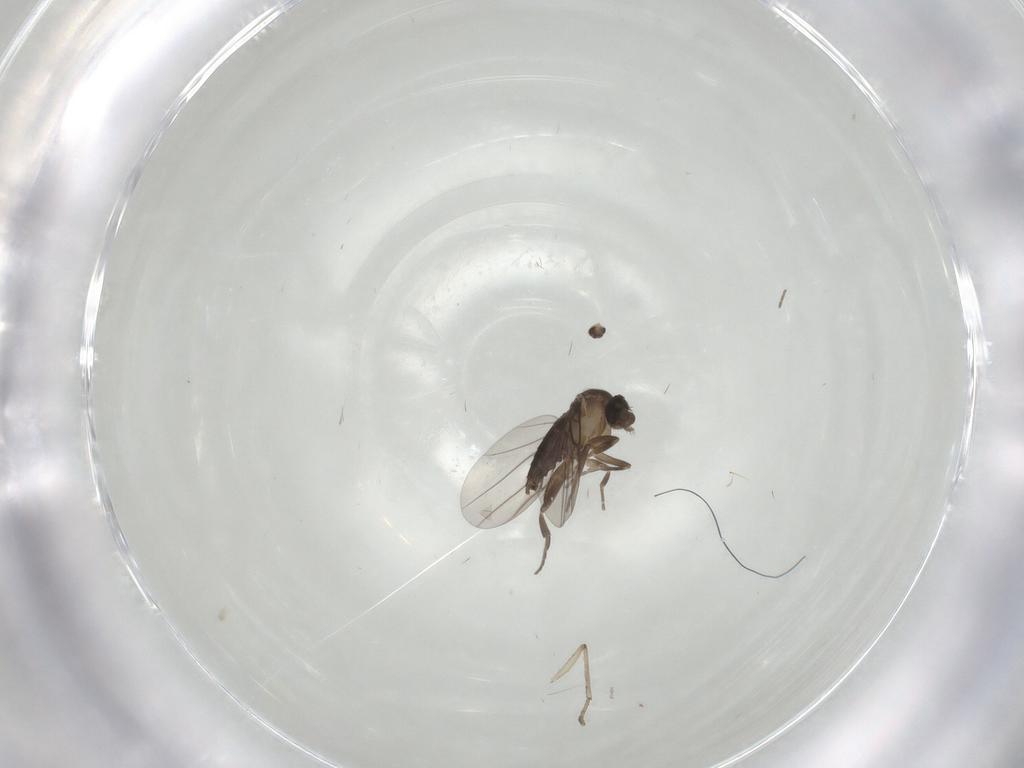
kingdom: Animalia
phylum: Arthropoda
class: Insecta
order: Diptera
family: Phoridae
